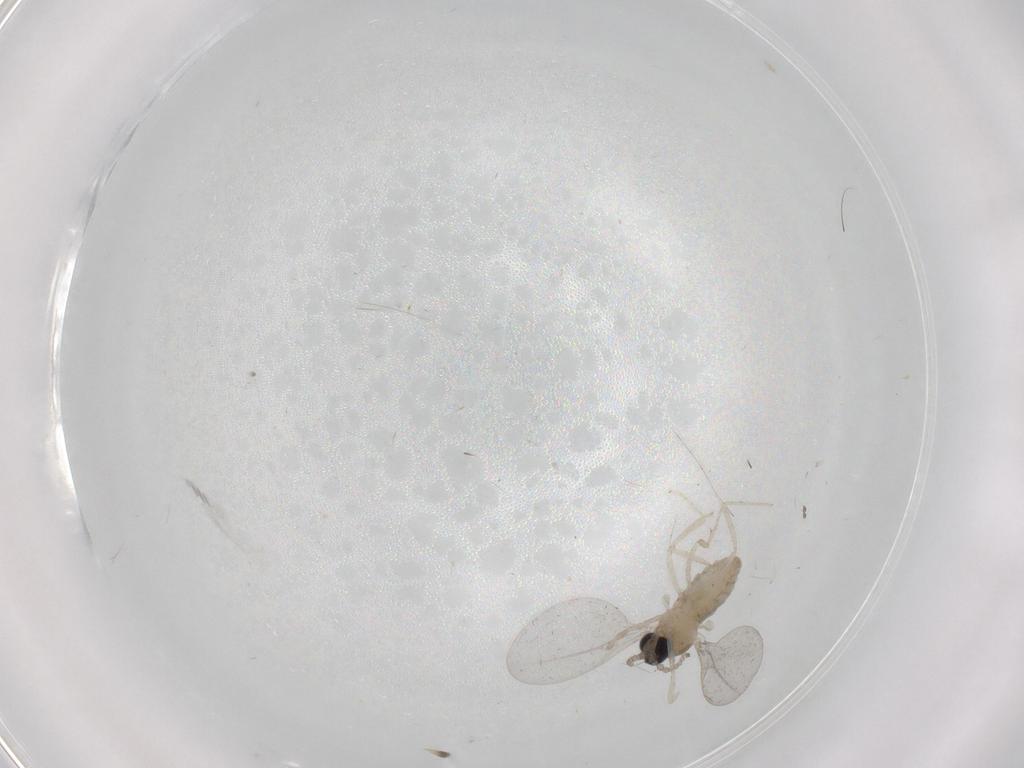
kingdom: Animalia
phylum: Arthropoda
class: Insecta
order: Diptera
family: Cecidomyiidae
